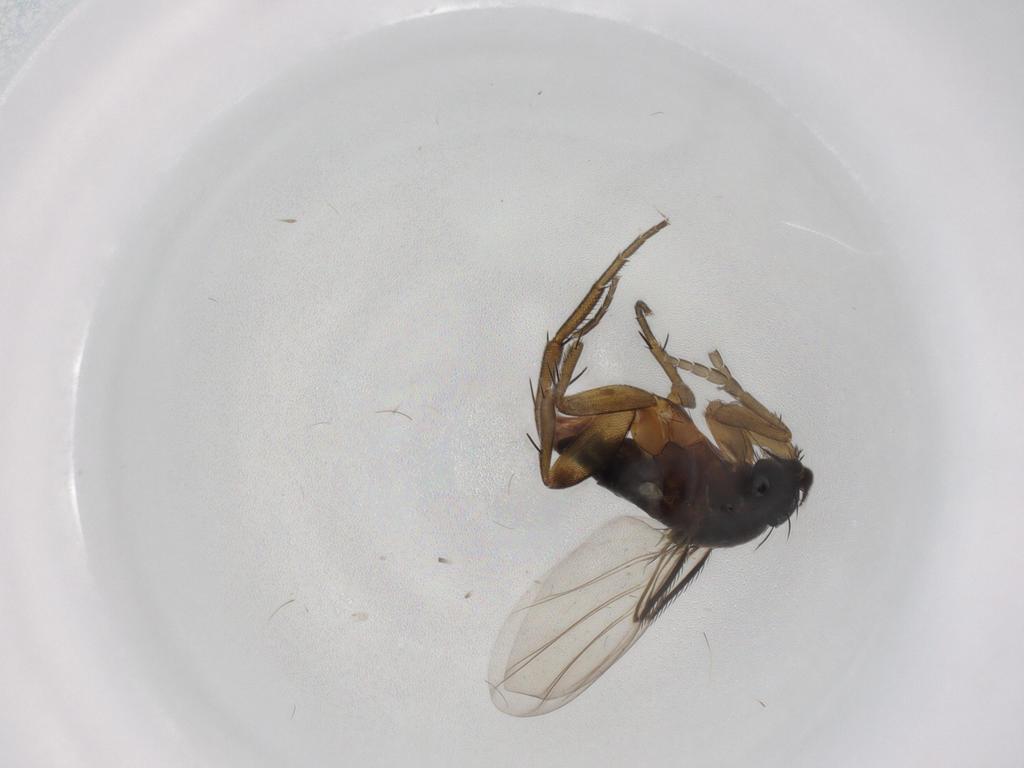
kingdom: Animalia
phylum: Arthropoda
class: Insecta
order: Diptera
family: Phoridae
